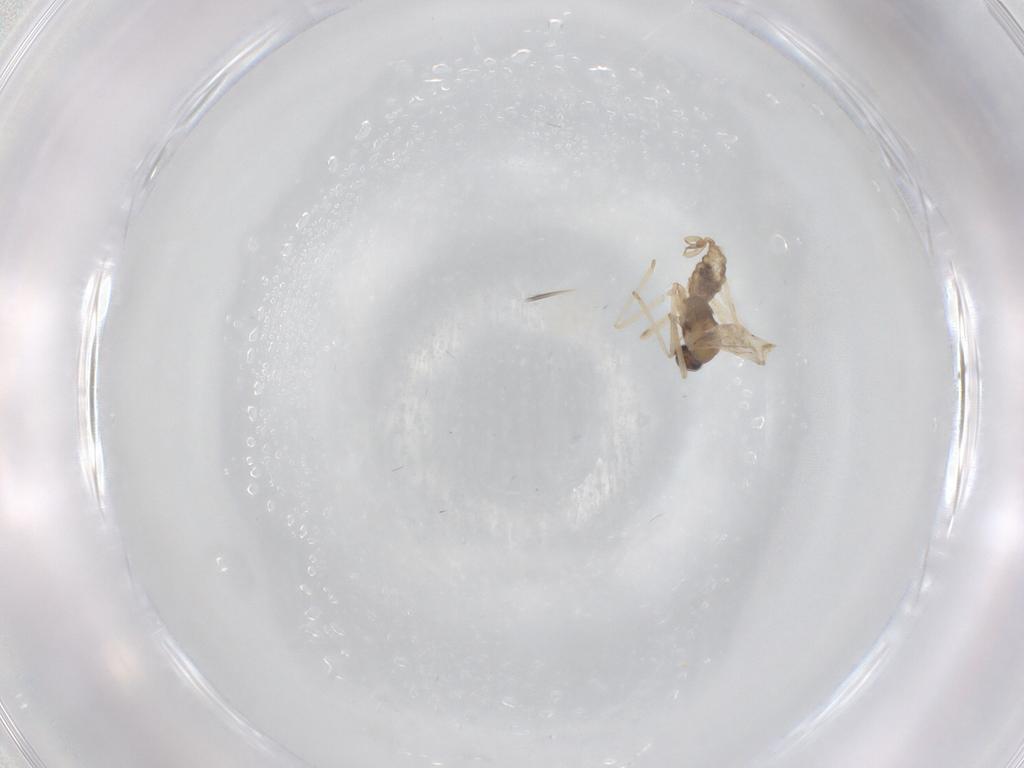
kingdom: Animalia
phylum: Arthropoda
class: Insecta
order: Diptera
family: Cecidomyiidae
